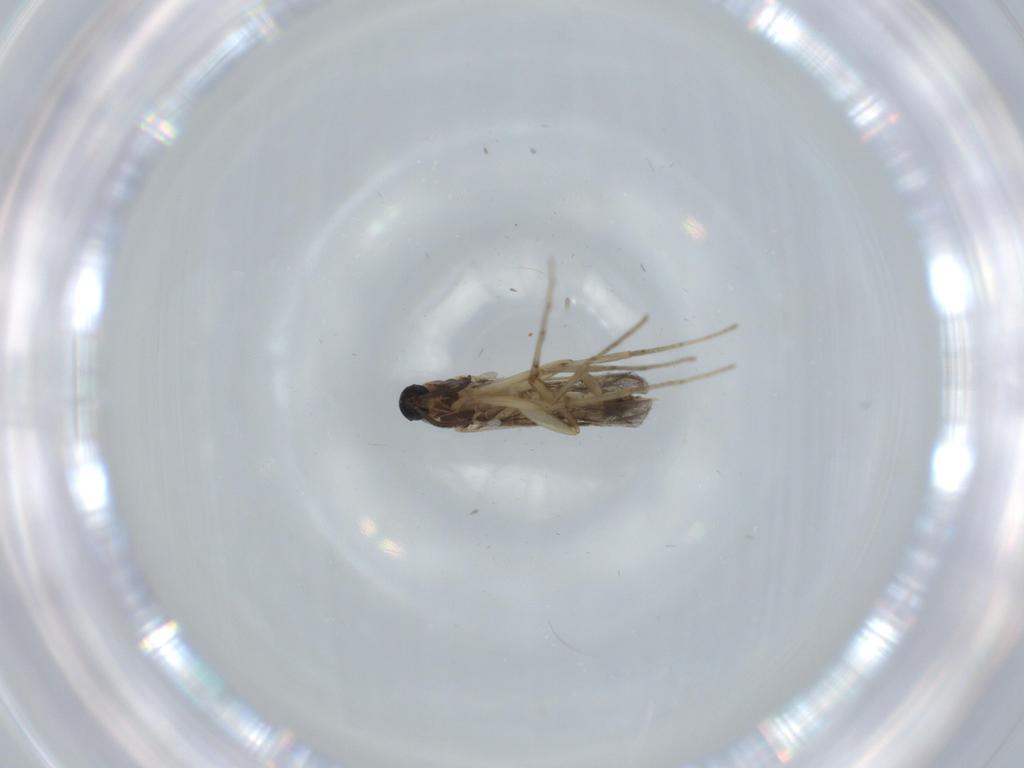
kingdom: Animalia
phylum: Arthropoda
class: Insecta
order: Diptera
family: Cecidomyiidae
